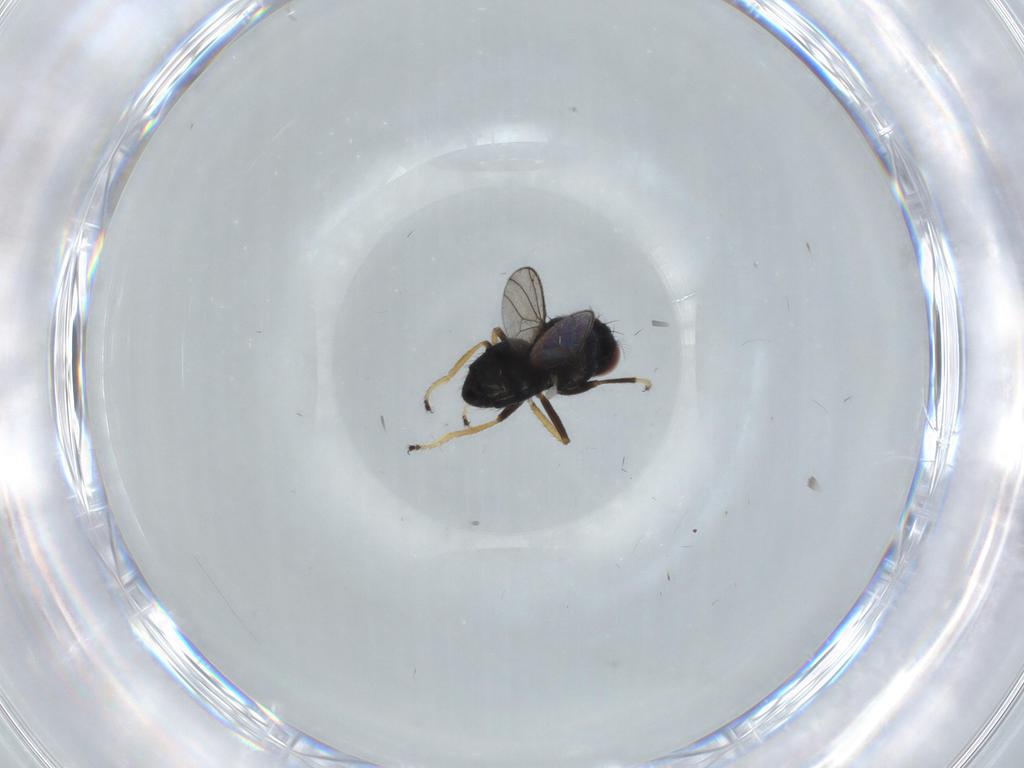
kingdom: Animalia
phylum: Arthropoda
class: Insecta
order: Diptera
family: Ephydridae
